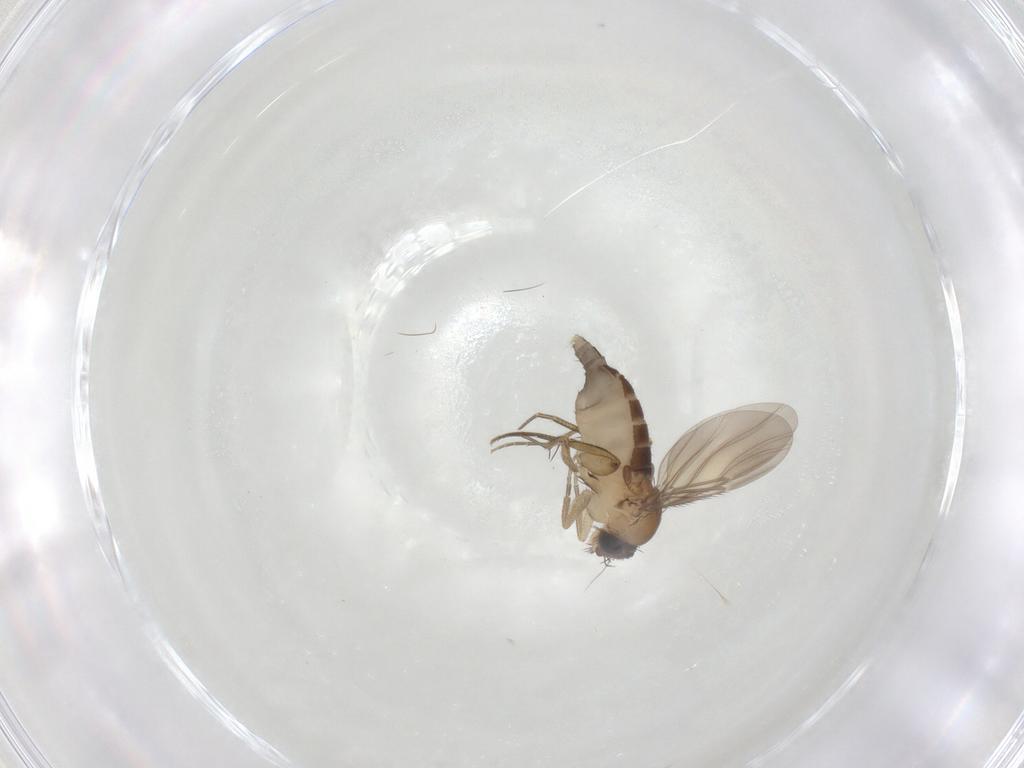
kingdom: Animalia
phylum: Arthropoda
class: Insecta
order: Diptera
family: Phoridae
